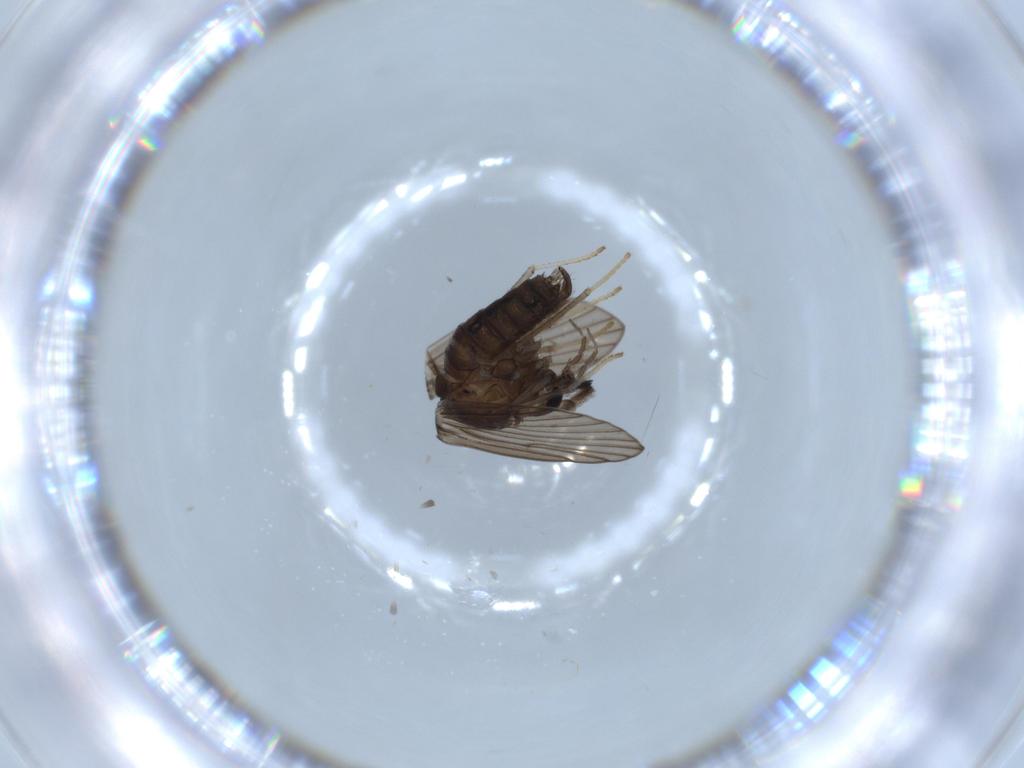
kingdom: Animalia
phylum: Arthropoda
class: Insecta
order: Diptera
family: Psychodidae
